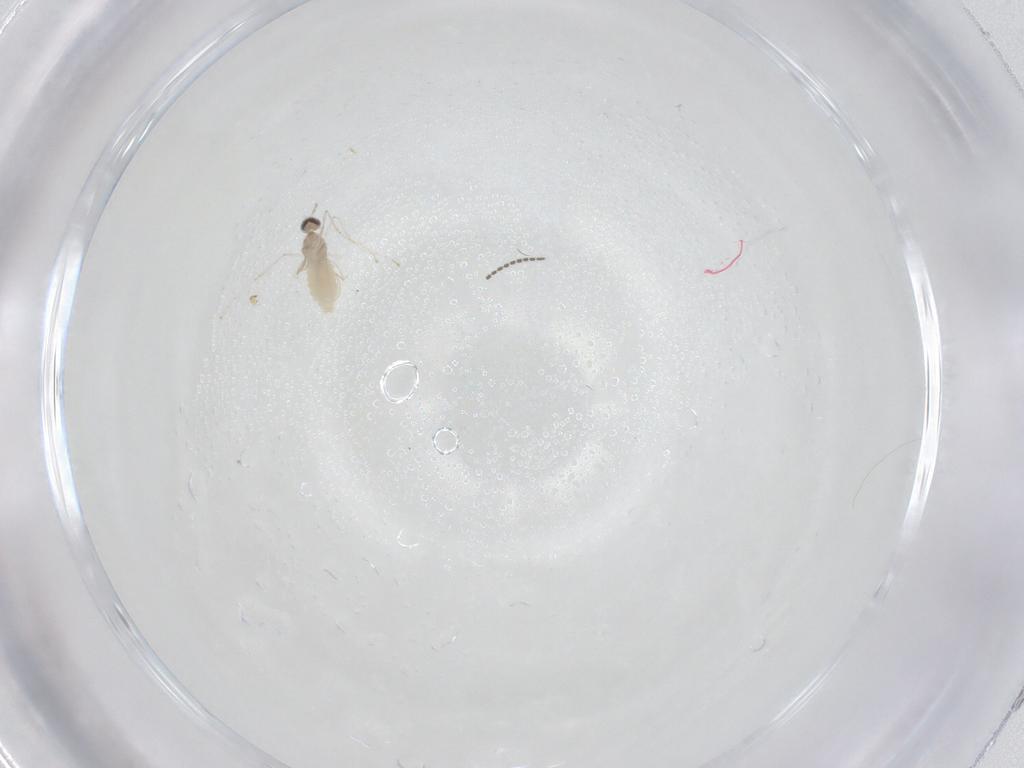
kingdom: Animalia
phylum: Arthropoda
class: Insecta
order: Diptera
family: Cecidomyiidae
